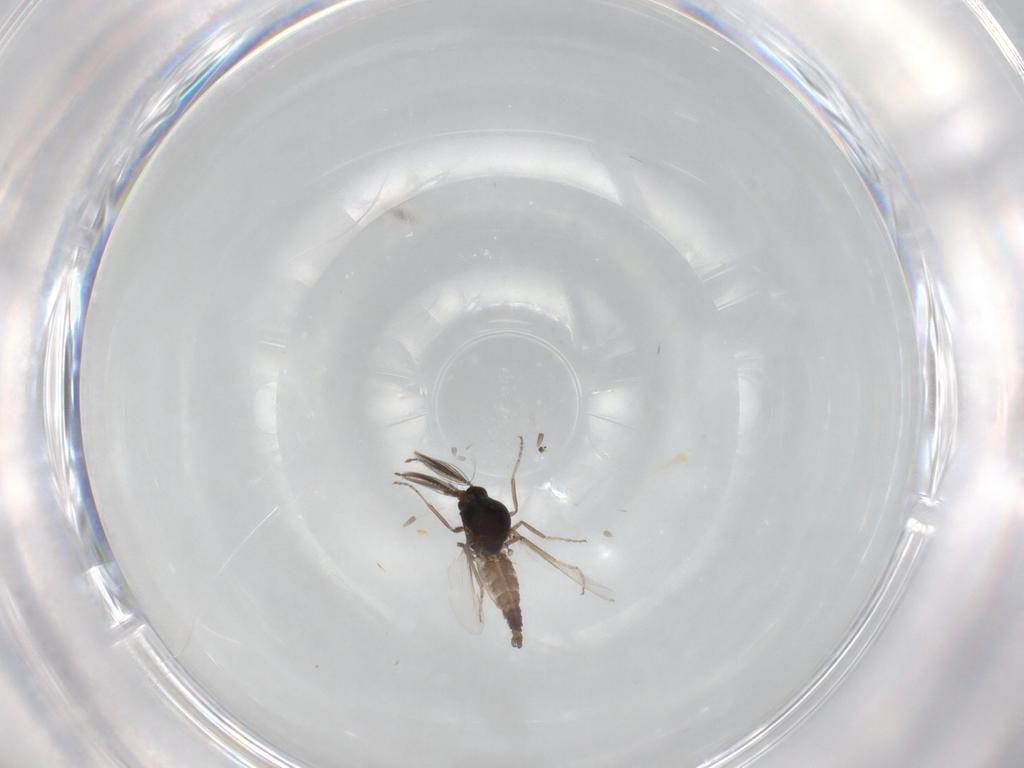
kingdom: Animalia
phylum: Arthropoda
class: Insecta
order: Diptera
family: Ceratopogonidae
